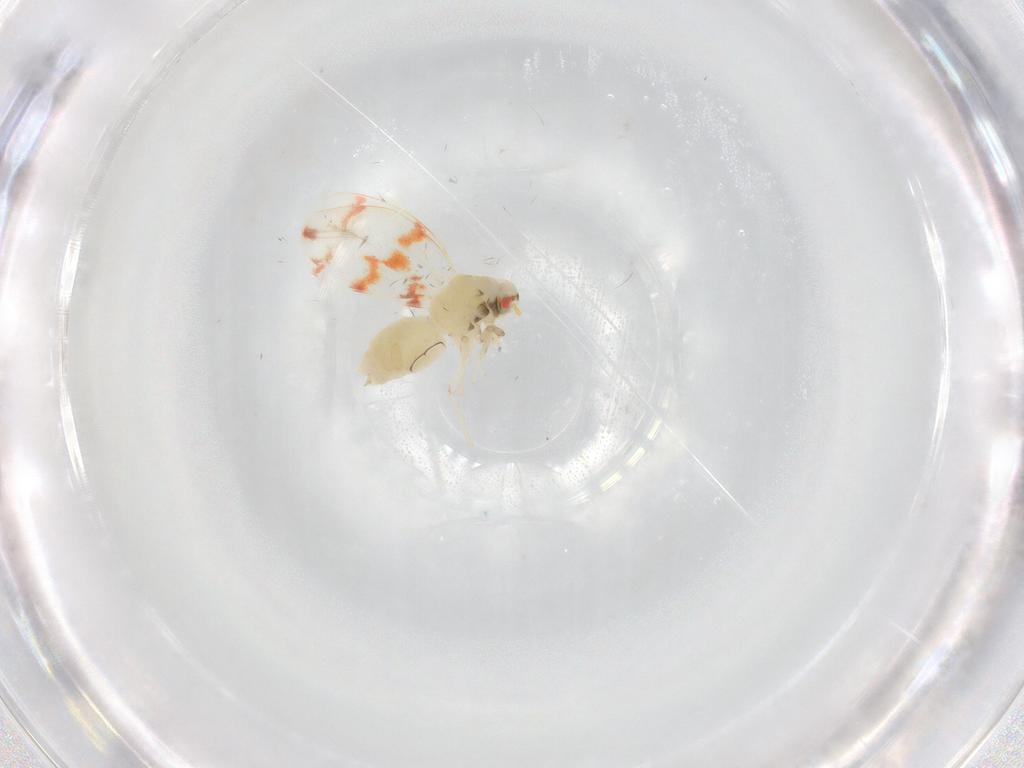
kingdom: Animalia
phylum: Arthropoda
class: Insecta
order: Hemiptera
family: Aleyrodidae
